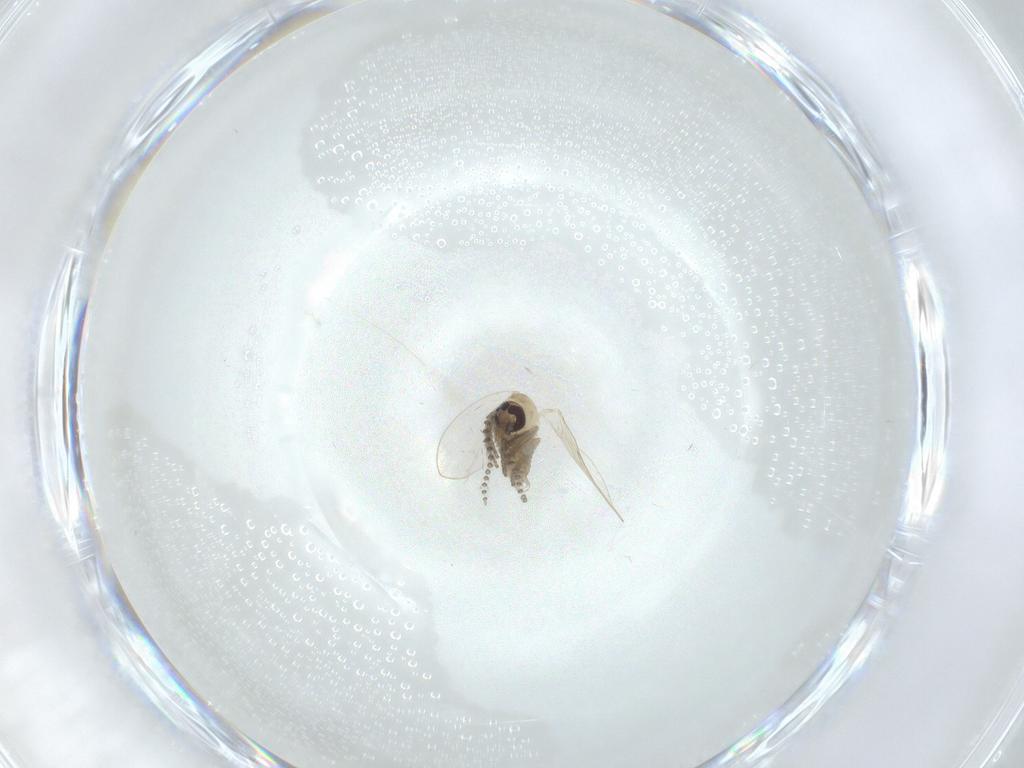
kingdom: Animalia
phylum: Arthropoda
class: Insecta
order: Diptera
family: Psychodidae
